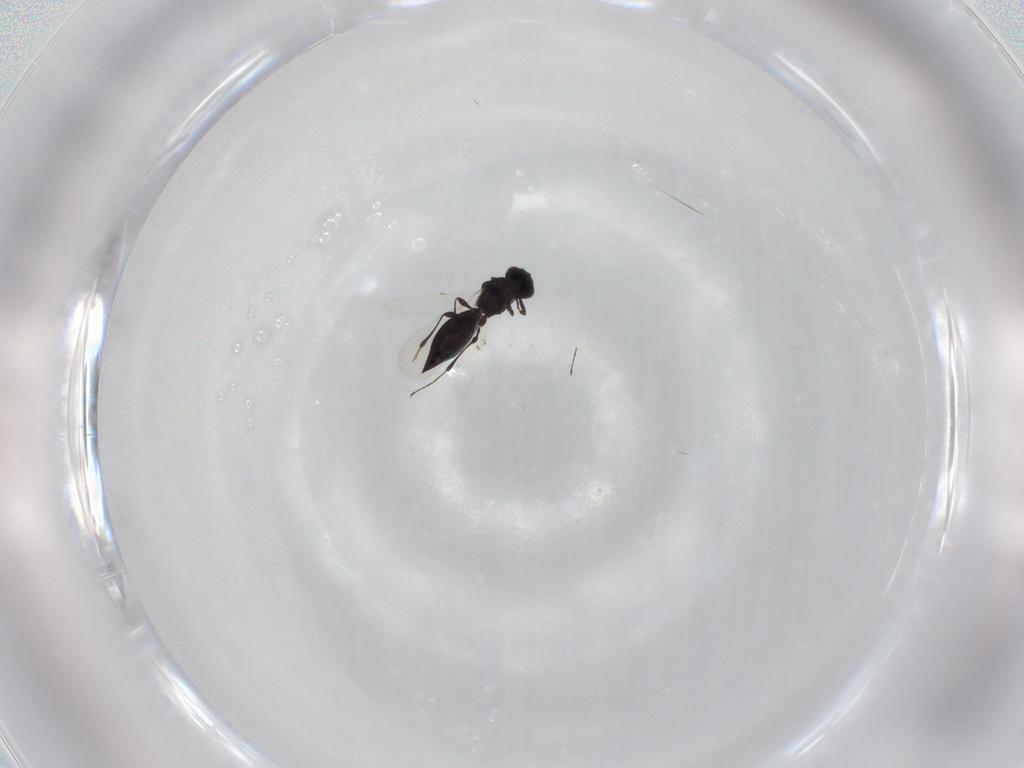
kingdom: Animalia
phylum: Arthropoda
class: Insecta
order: Hymenoptera
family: Platygastridae
